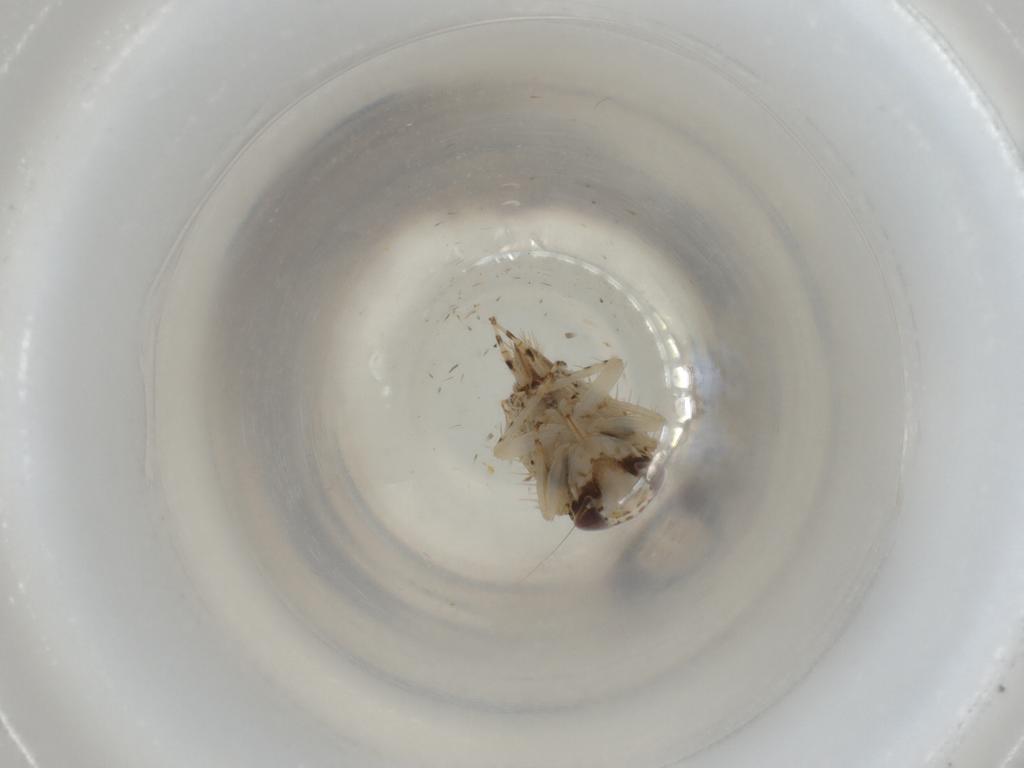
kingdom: Animalia
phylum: Arthropoda
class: Insecta
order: Hemiptera
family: Cicadellidae
